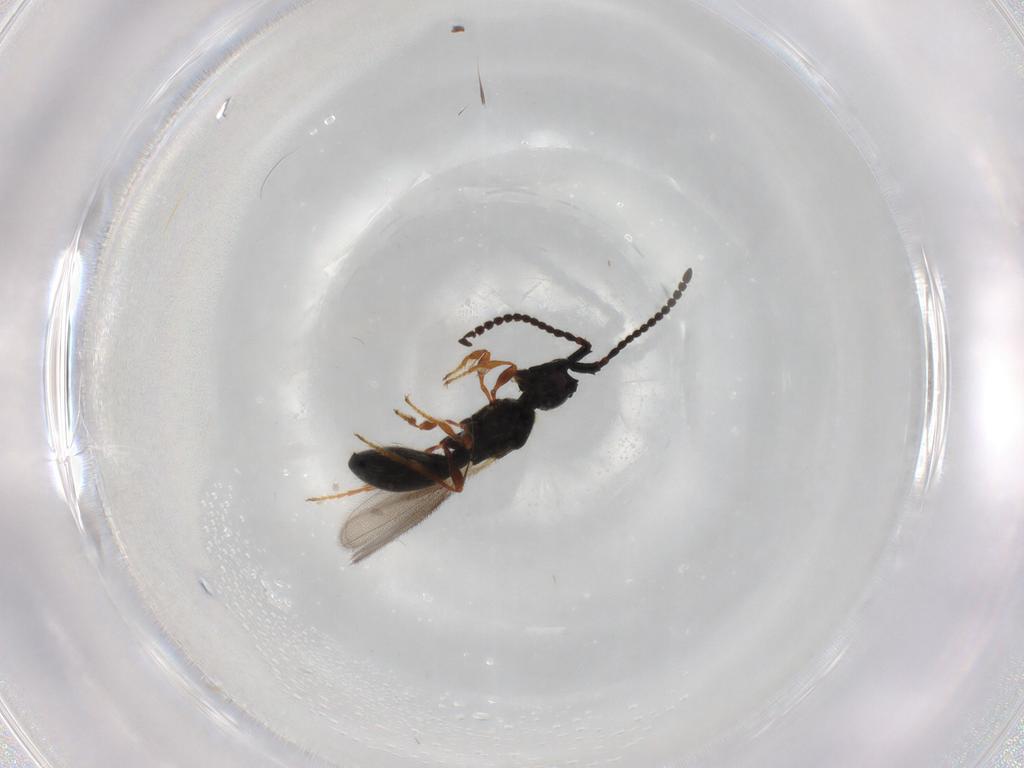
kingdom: Animalia
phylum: Arthropoda
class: Insecta
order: Hymenoptera
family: Diapriidae
